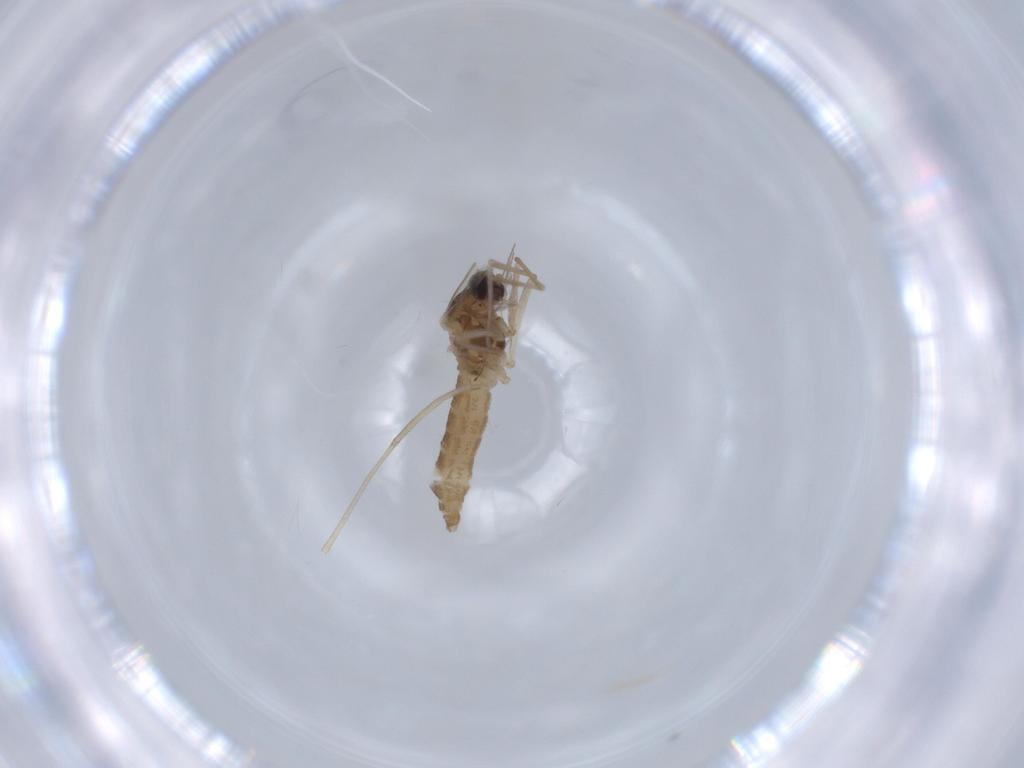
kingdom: Animalia
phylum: Arthropoda
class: Insecta
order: Diptera
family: Muscidae
